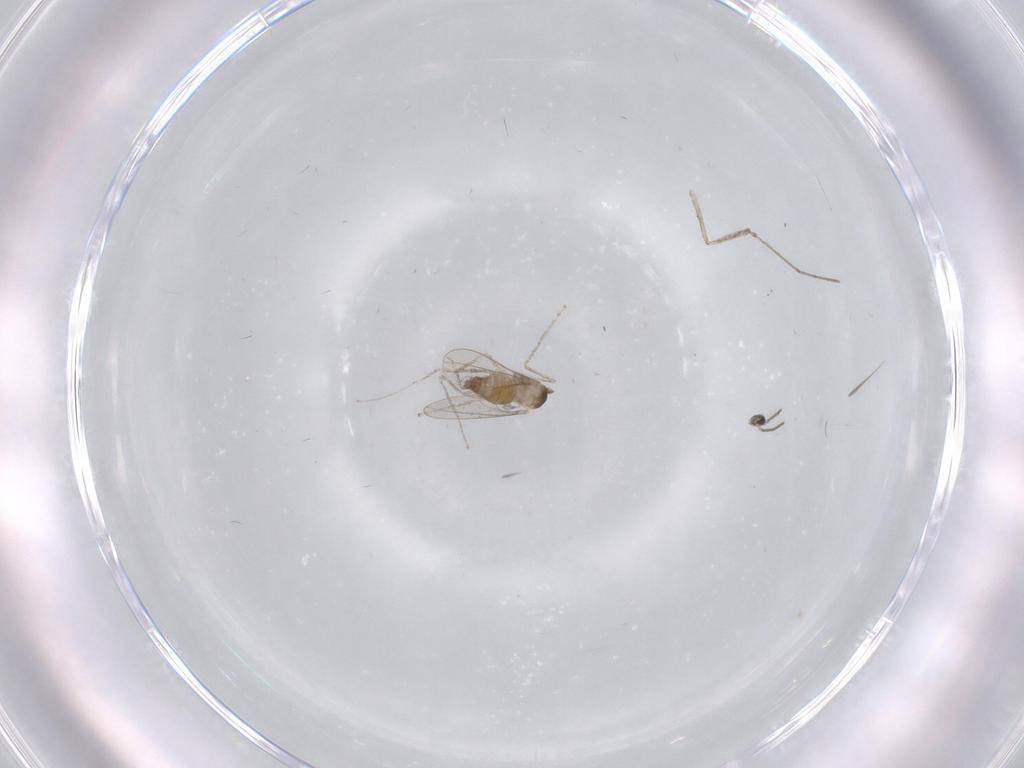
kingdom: Animalia
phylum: Arthropoda
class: Insecta
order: Diptera
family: Cecidomyiidae
